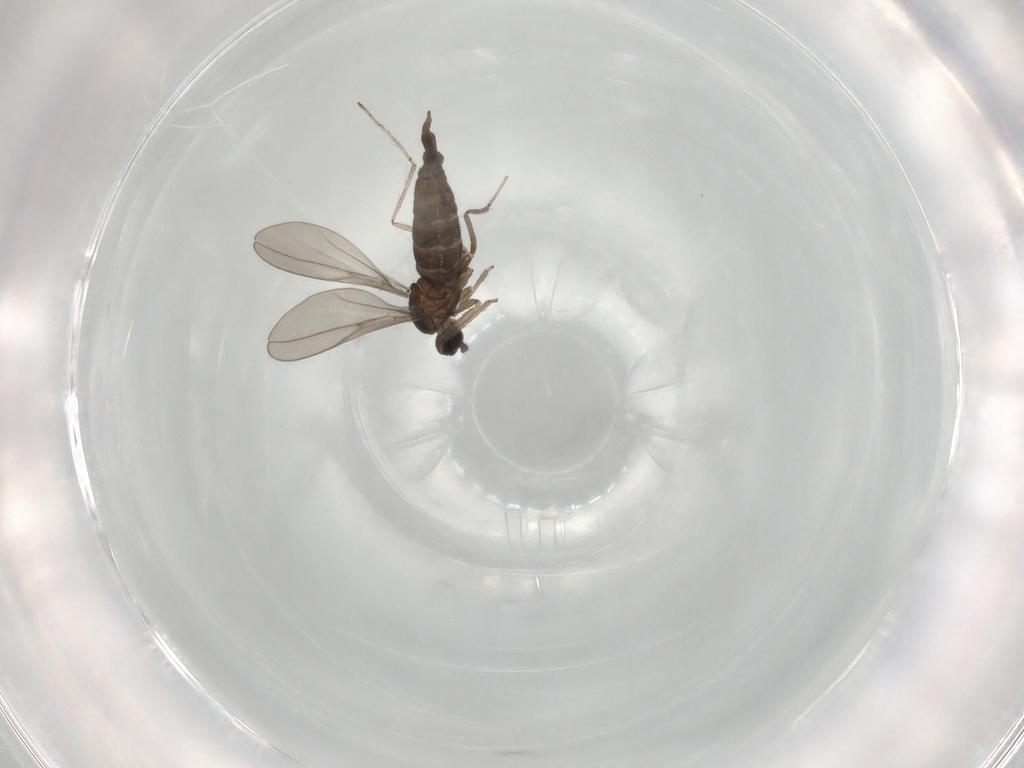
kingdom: Animalia
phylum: Arthropoda
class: Insecta
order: Diptera
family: Cecidomyiidae
